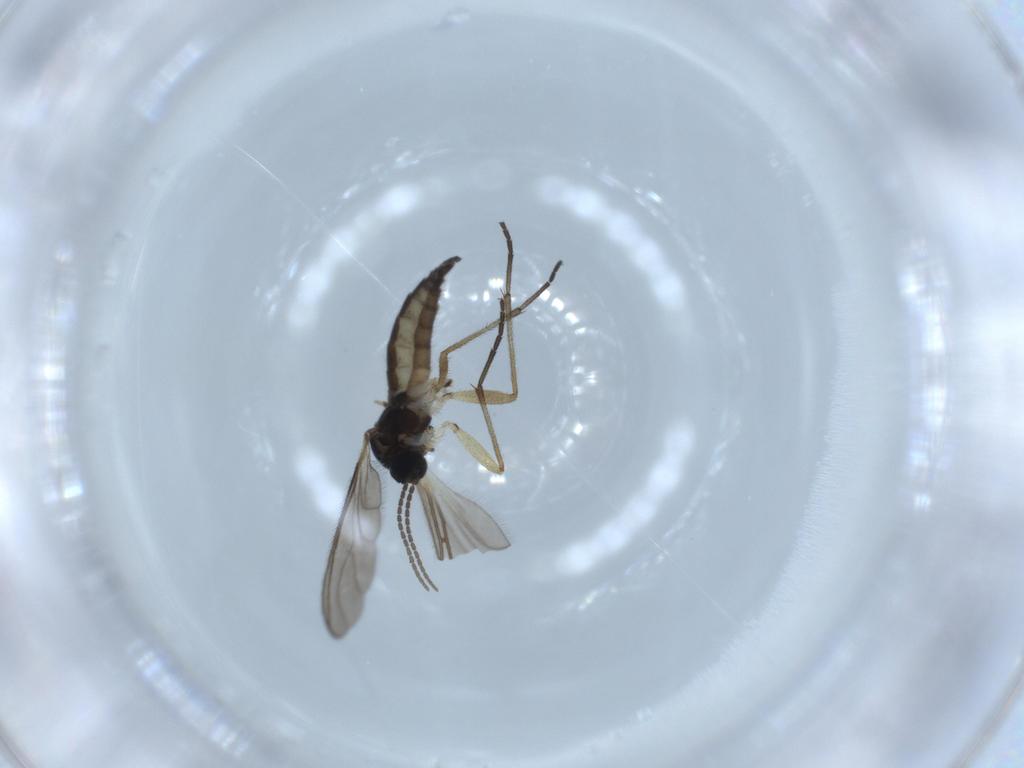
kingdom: Animalia
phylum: Arthropoda
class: Insecta
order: Diptera
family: Sciaridae
